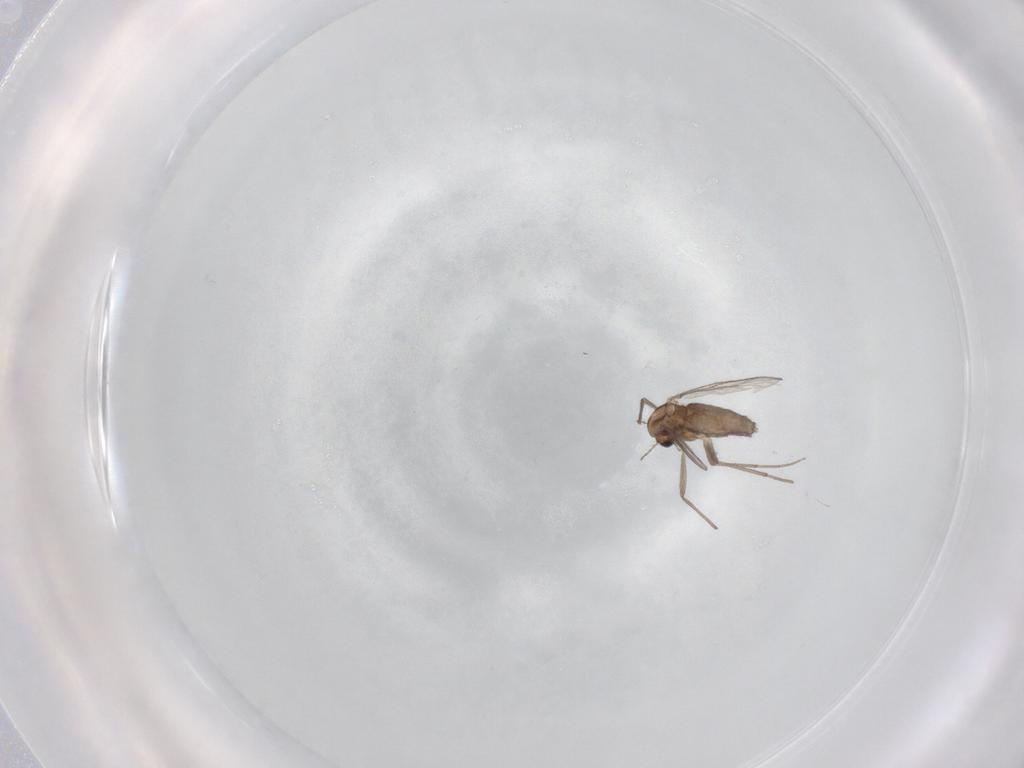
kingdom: Animalia
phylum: Arthropoda
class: Insecta
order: Diptera
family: Chironomidae
